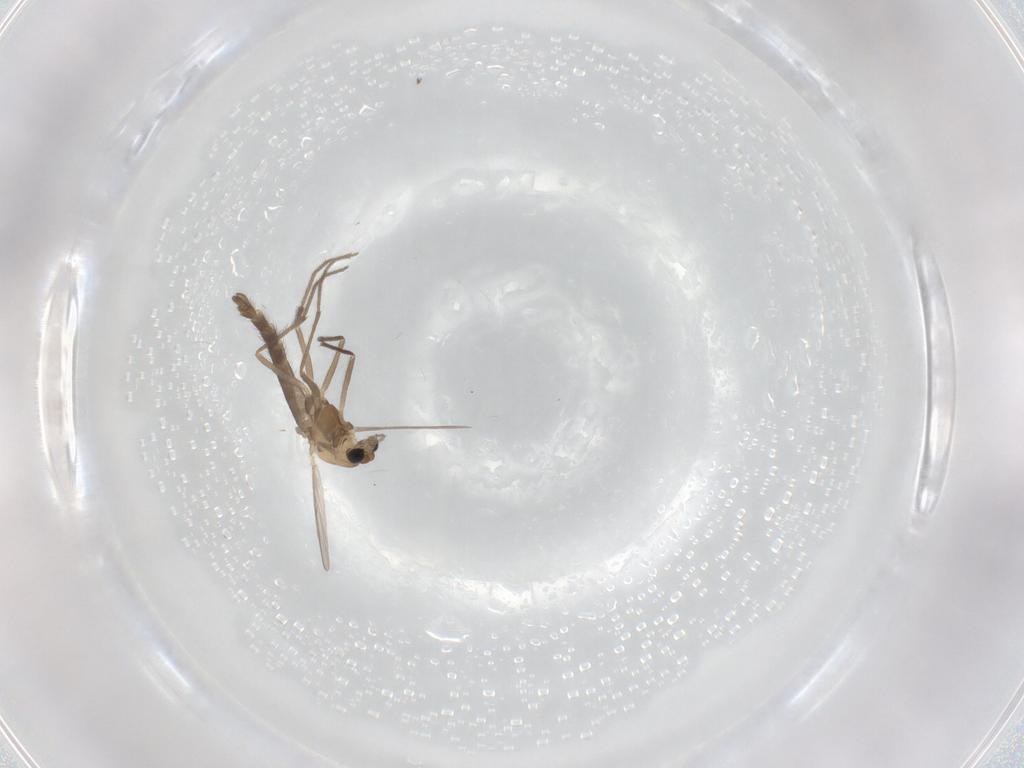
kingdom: Animalia
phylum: Arthropoda
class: Insecta
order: Diptera
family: Chironomidae
